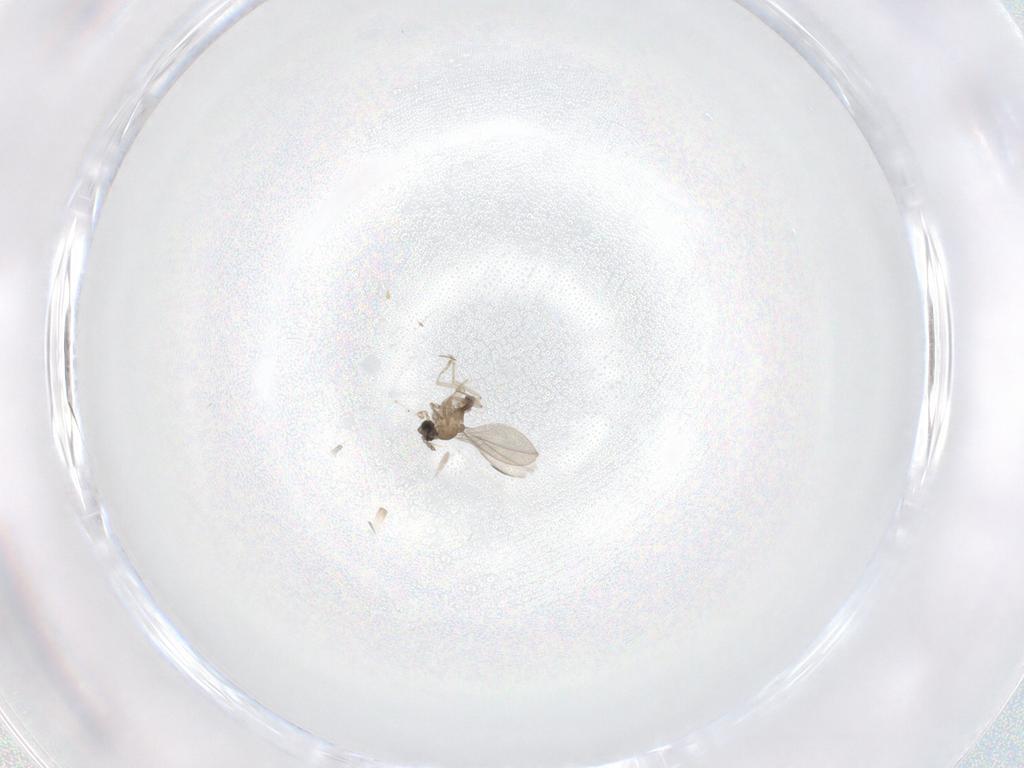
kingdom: Animalia
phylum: Arthropoda
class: Insecta
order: Diptera
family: Cecidomyiidae
